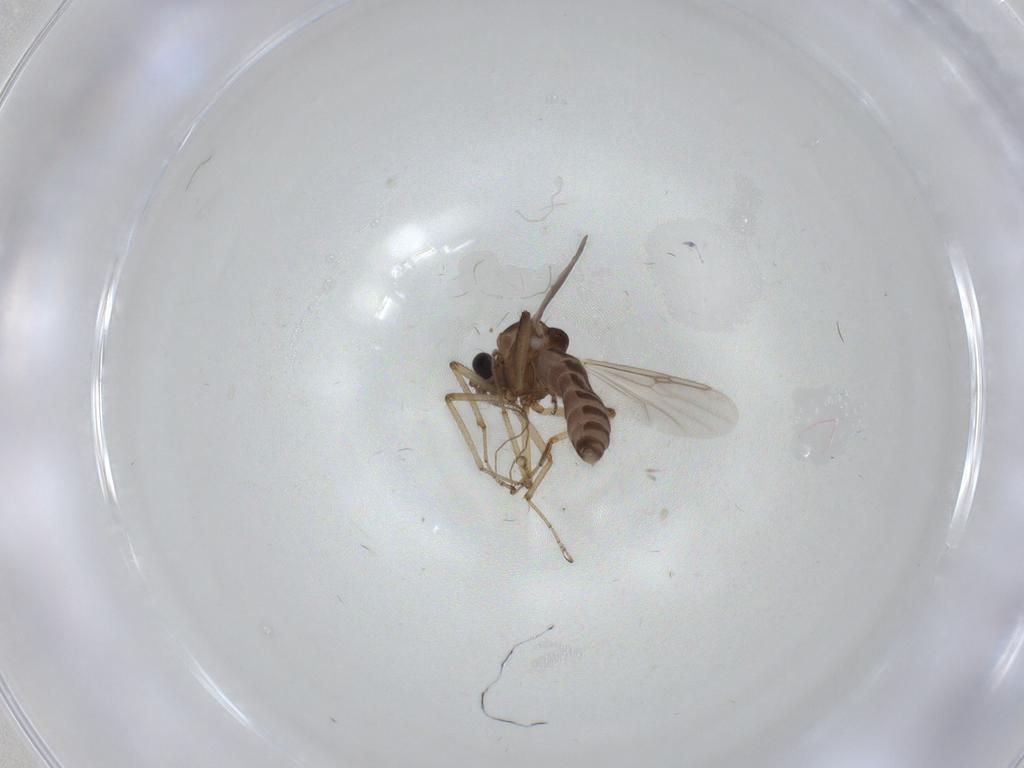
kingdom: Animalia
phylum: Arthropoda
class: Insecta
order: Diptera
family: Ceratopogonidae
